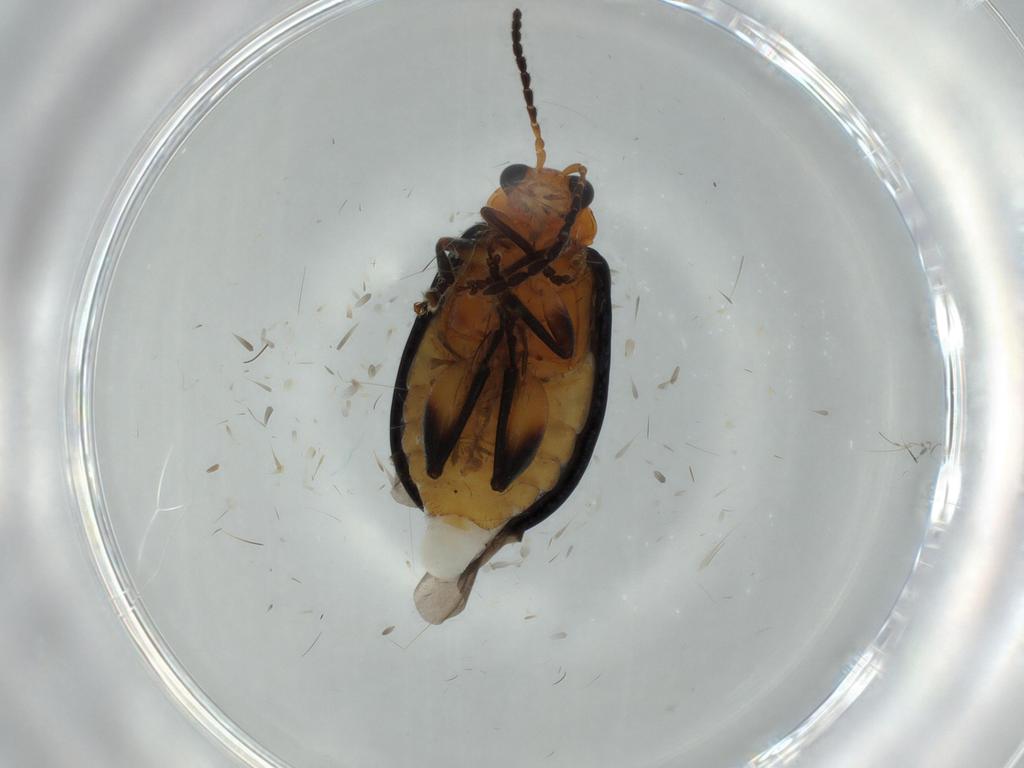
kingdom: Animalia
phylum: Arthropoda
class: Insecta
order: Coleoptera
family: Chrysomelidae
